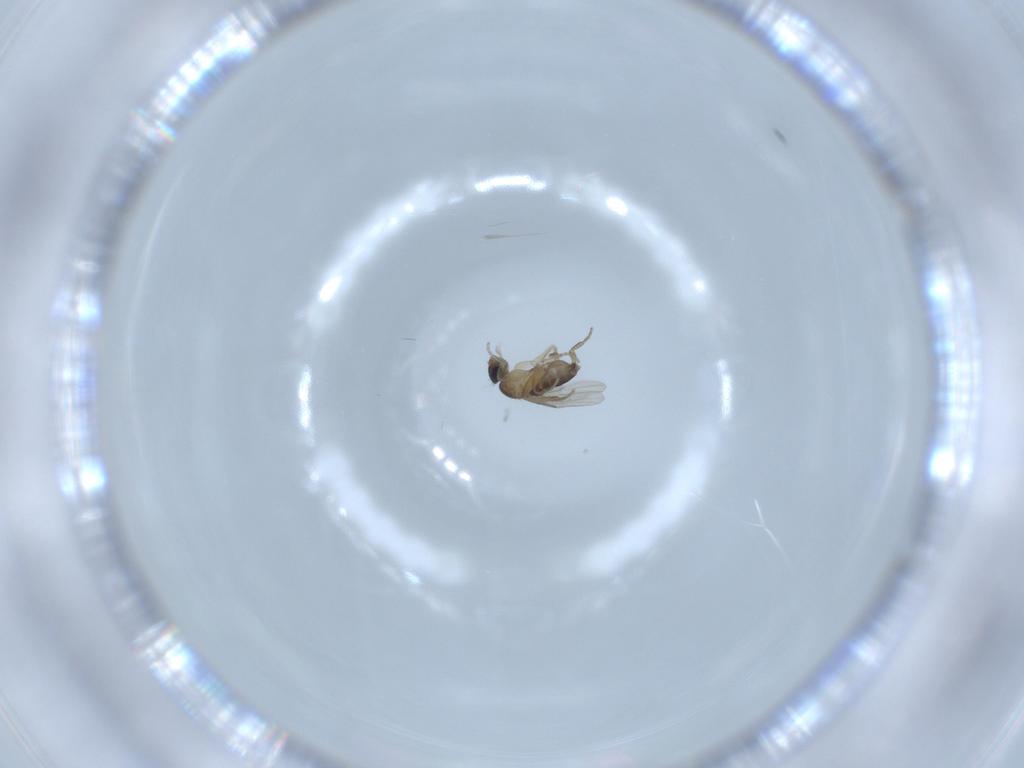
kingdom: Animalia
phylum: Arthropoda
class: Insecta
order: Diptera
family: Phoridae
